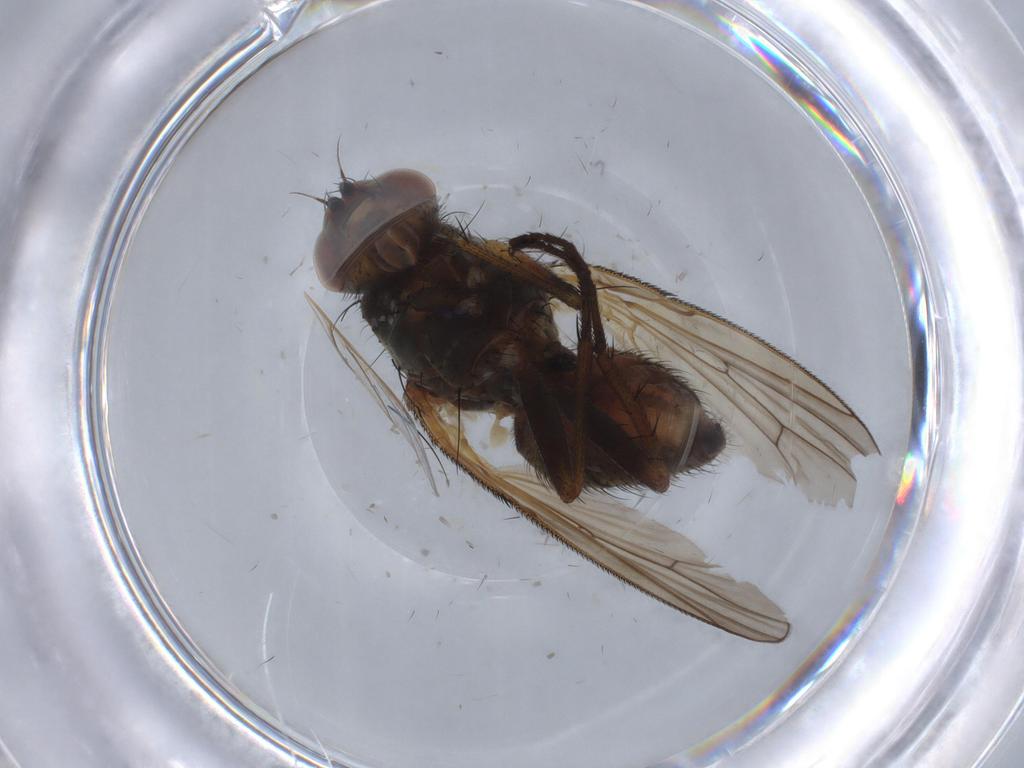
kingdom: Animalia
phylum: Arthropoda
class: Insecta
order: Diptera
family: Anthomyiidae
